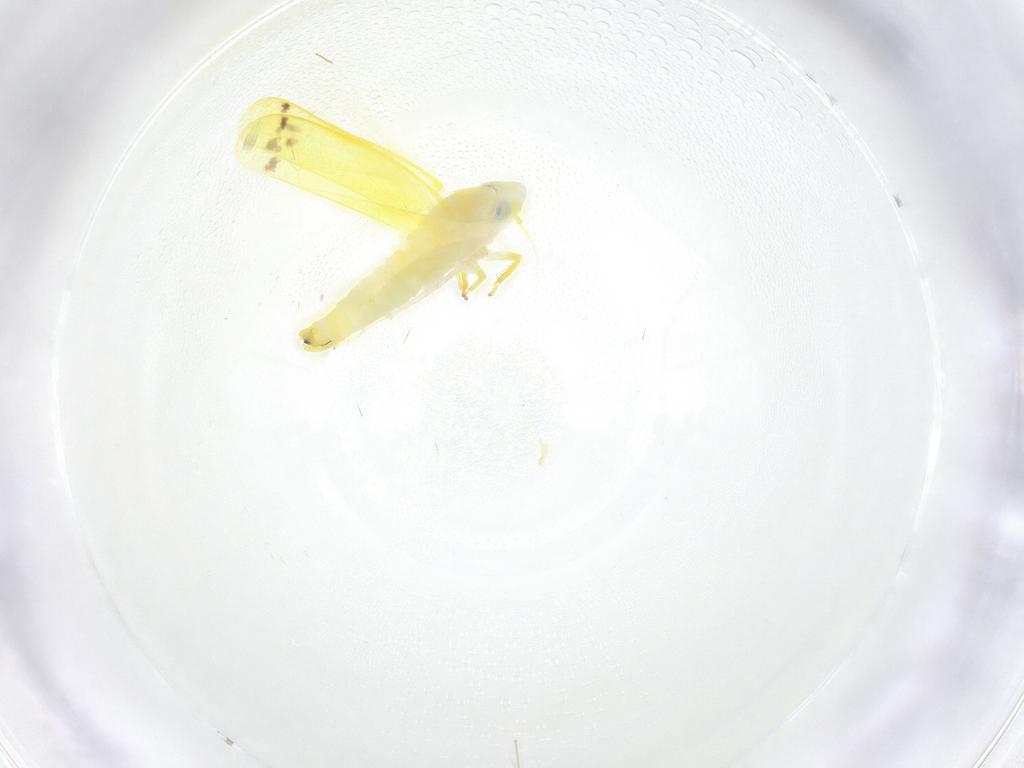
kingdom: Animalia
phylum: Arthropoda
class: Insecta
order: Hemiptera
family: Cicadellidae
